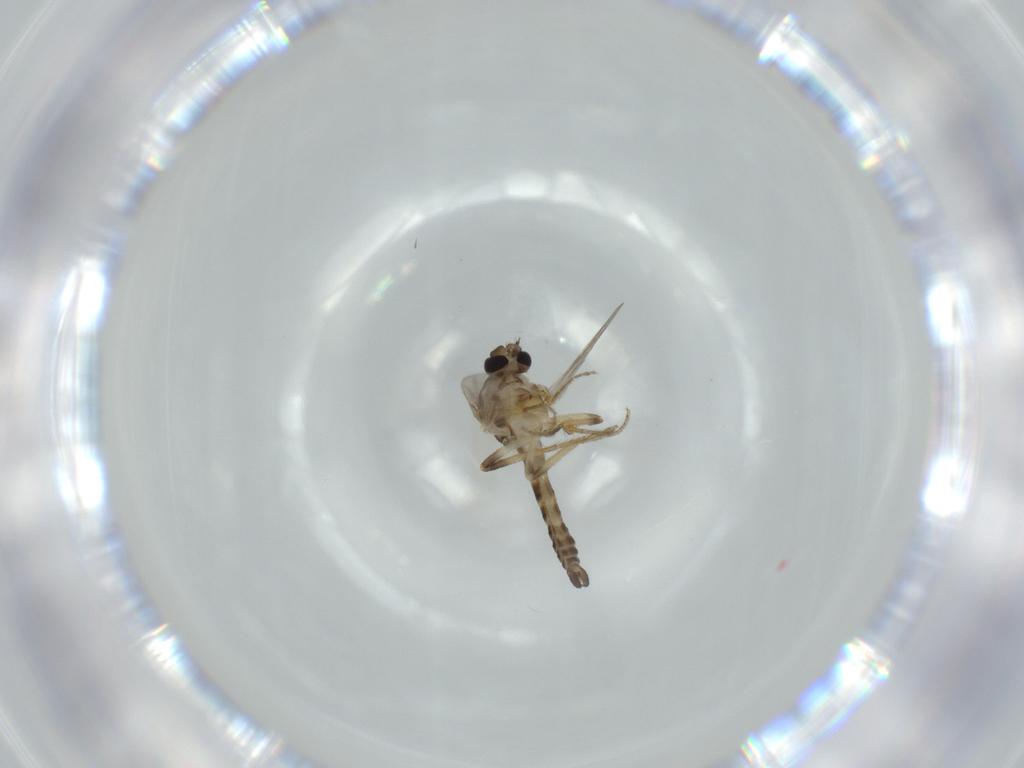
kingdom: Animalia
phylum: Arthropoda
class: Insecta
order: Diptera
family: Ceratopogonidae
